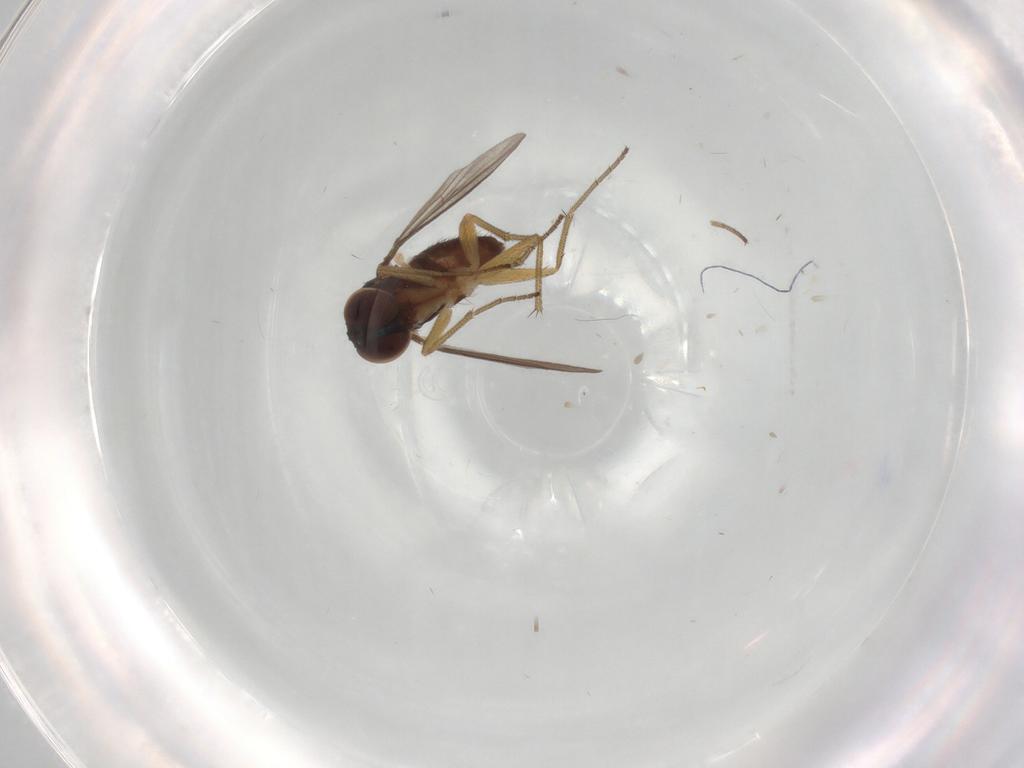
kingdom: Animalia
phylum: Arthropoda
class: Insecta
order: Diptera
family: Dolichopodidae
